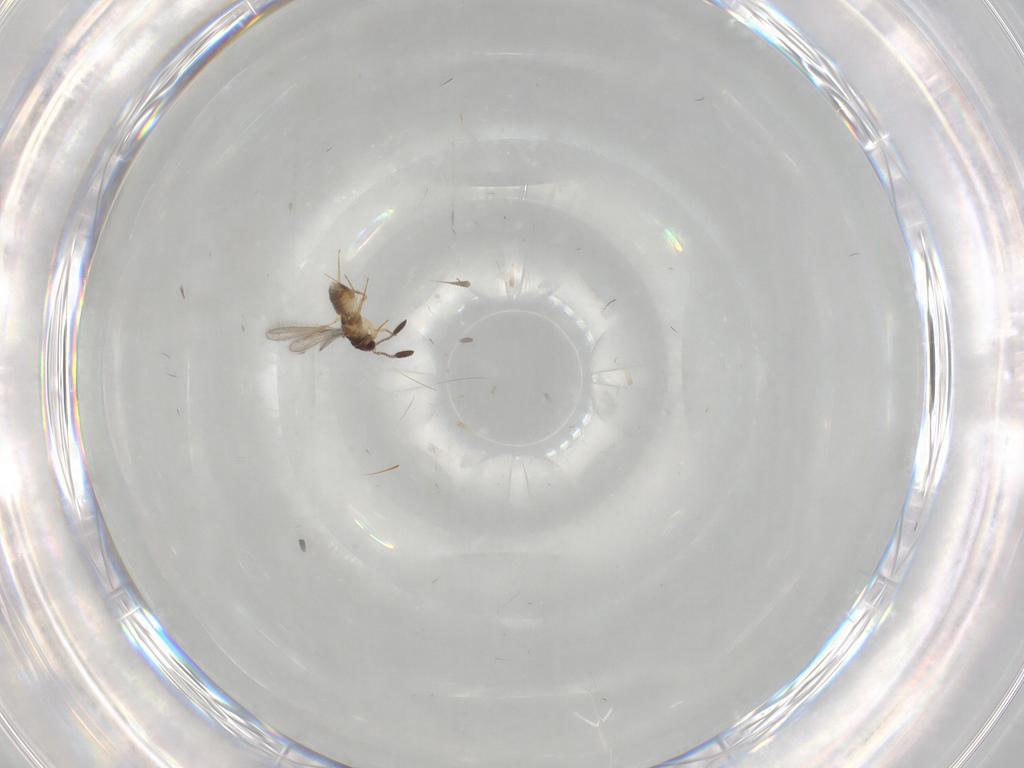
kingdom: Animalia
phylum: Arthropoda
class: Insecta
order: Hymenoptera
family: Mymaridae
